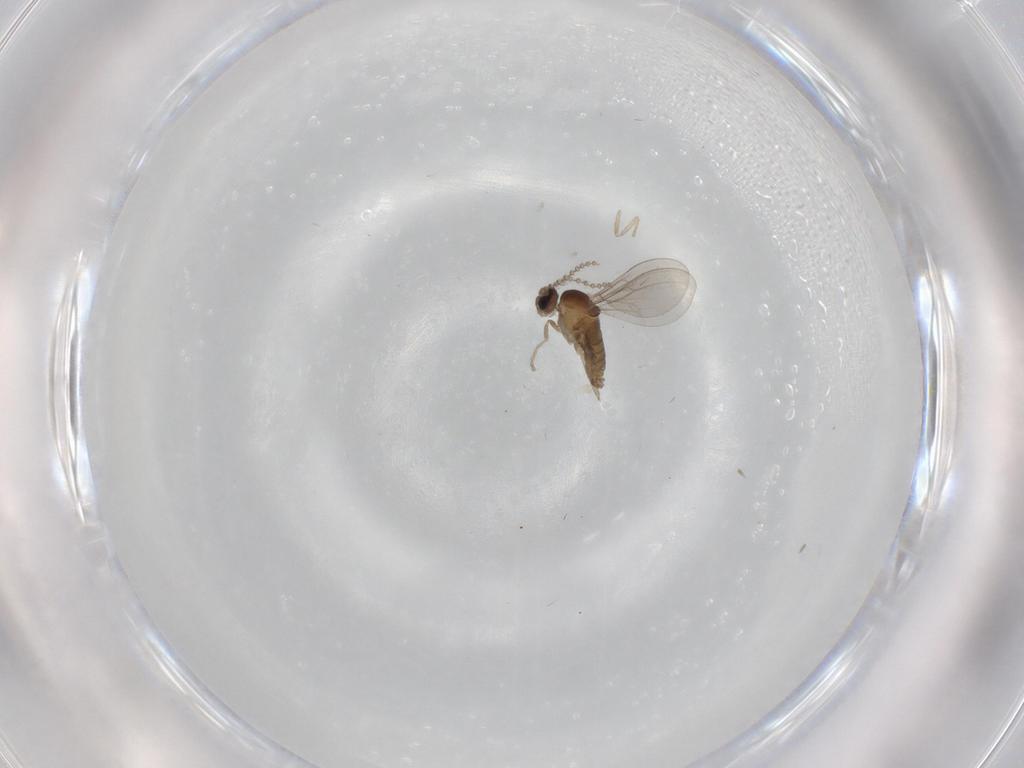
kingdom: Animalia
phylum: Arthropoda
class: Insecta
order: Diptera
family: Cecidomyiidae
